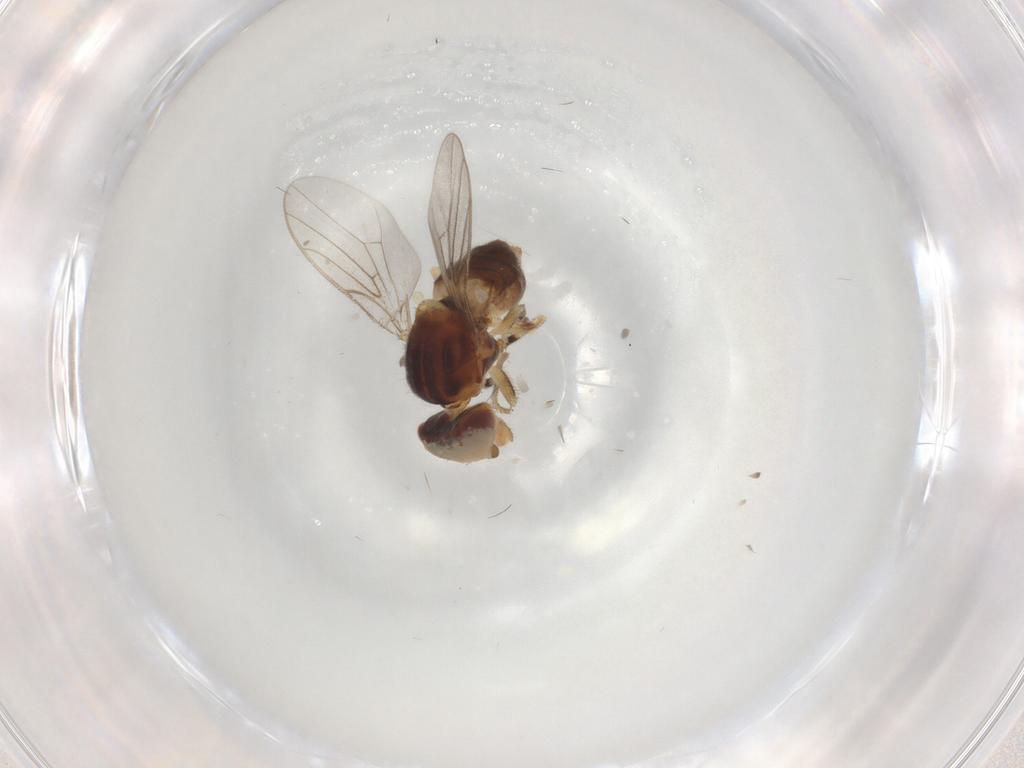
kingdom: Animalia
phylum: Arthropoda
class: Insecta
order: Diptera
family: Chloropidae
